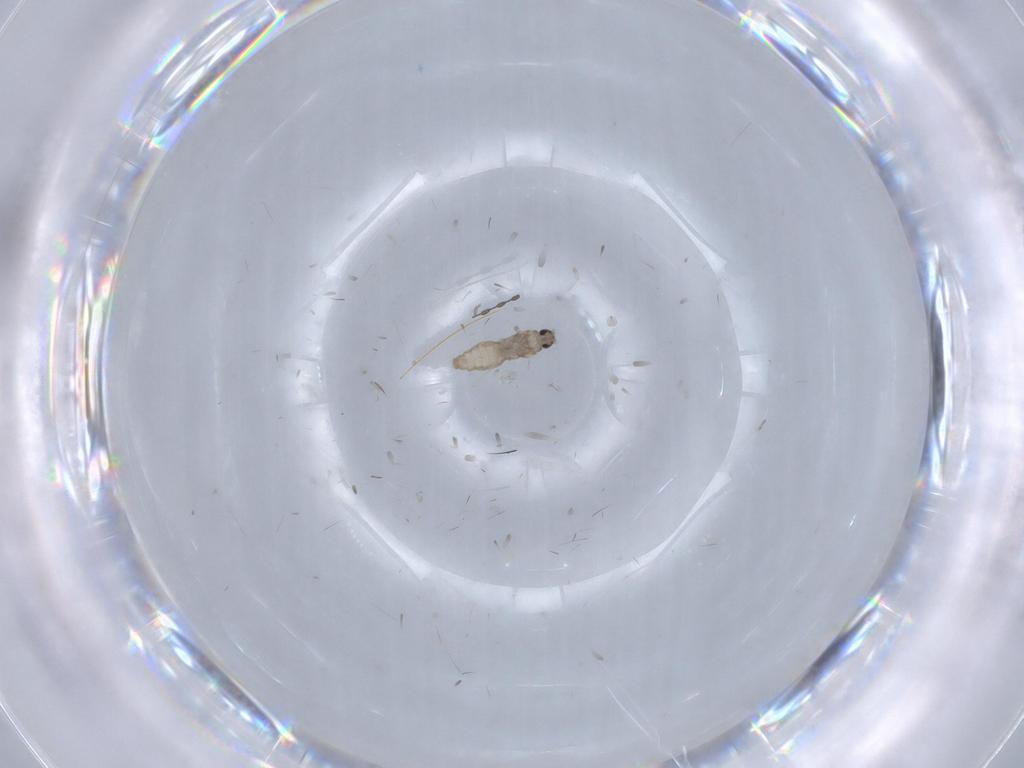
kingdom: Animalia
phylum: Arthropoda
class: Insecta
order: Diptera
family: Cecidomyiidae
